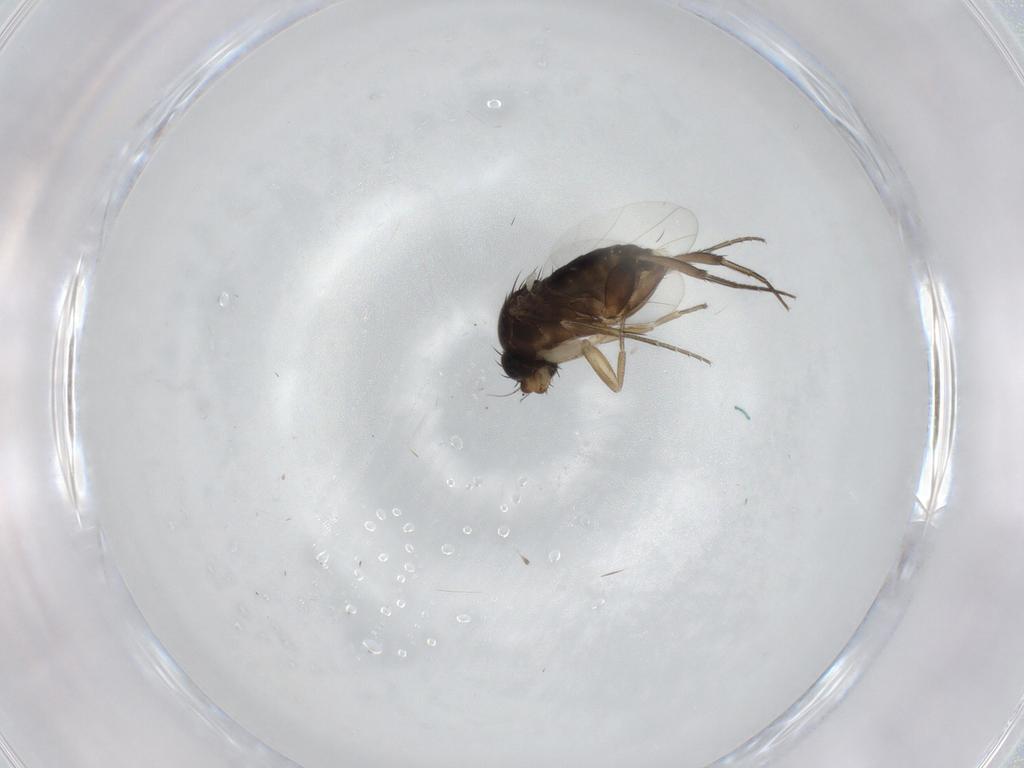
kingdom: Animalia
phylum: Arthropoda
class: Insecta
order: Diptera
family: Phoridae
